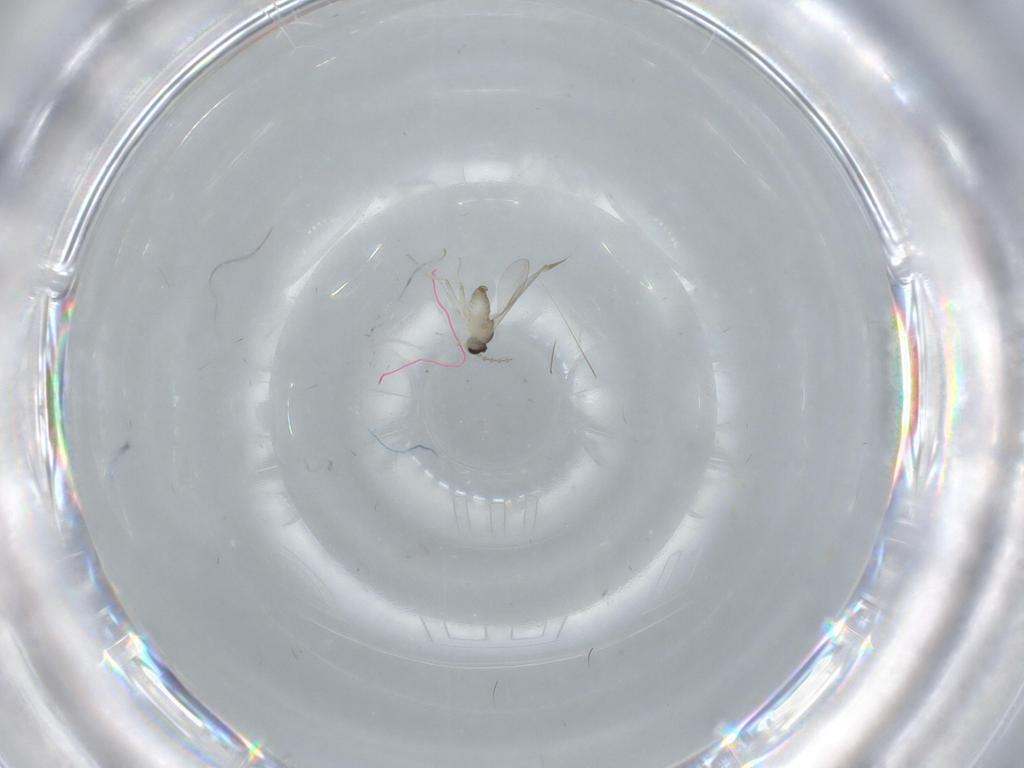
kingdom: Animalia
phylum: Arthropoda
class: Insecta
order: Diptera
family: Cecidomyiidae
